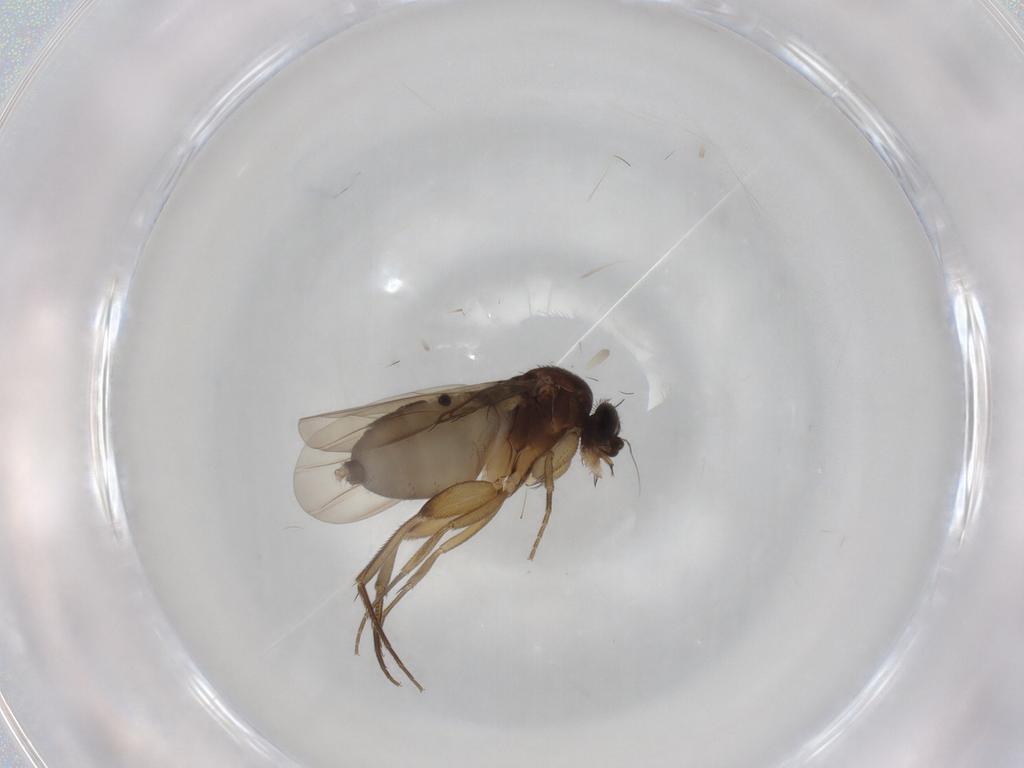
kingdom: Animalia
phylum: Arthropoda
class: Insecta
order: Diptera
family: Phoridae
